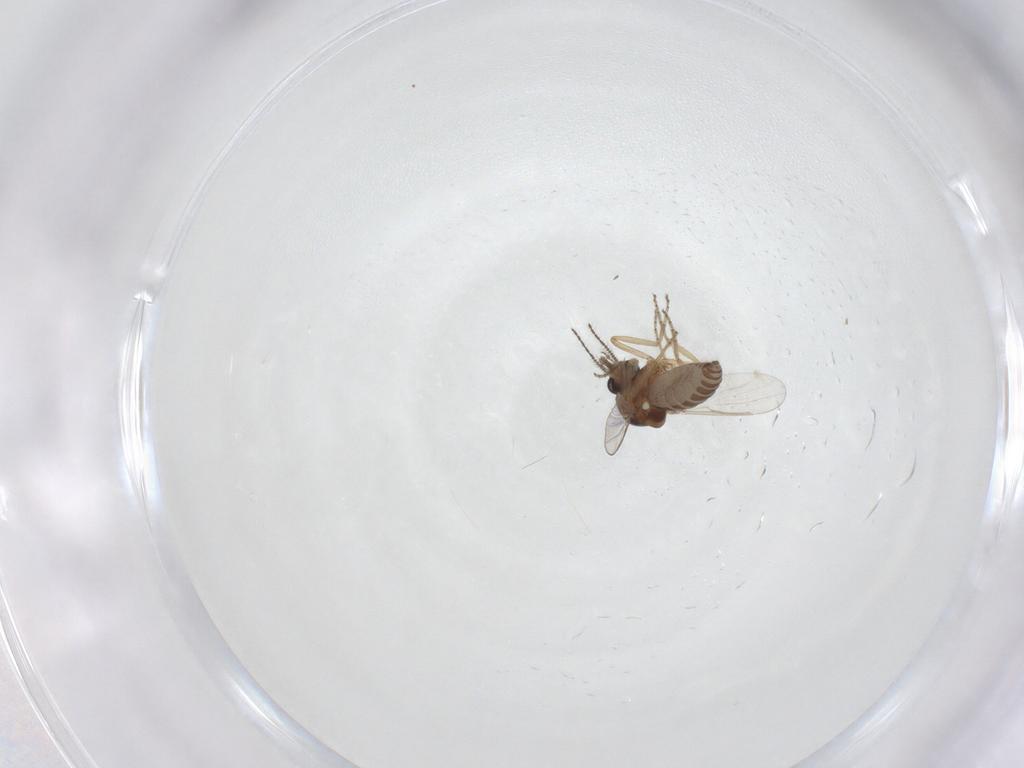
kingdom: Animalia
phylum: Arthropoda
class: Insecta
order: Diptera
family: Ceratopogonidae
